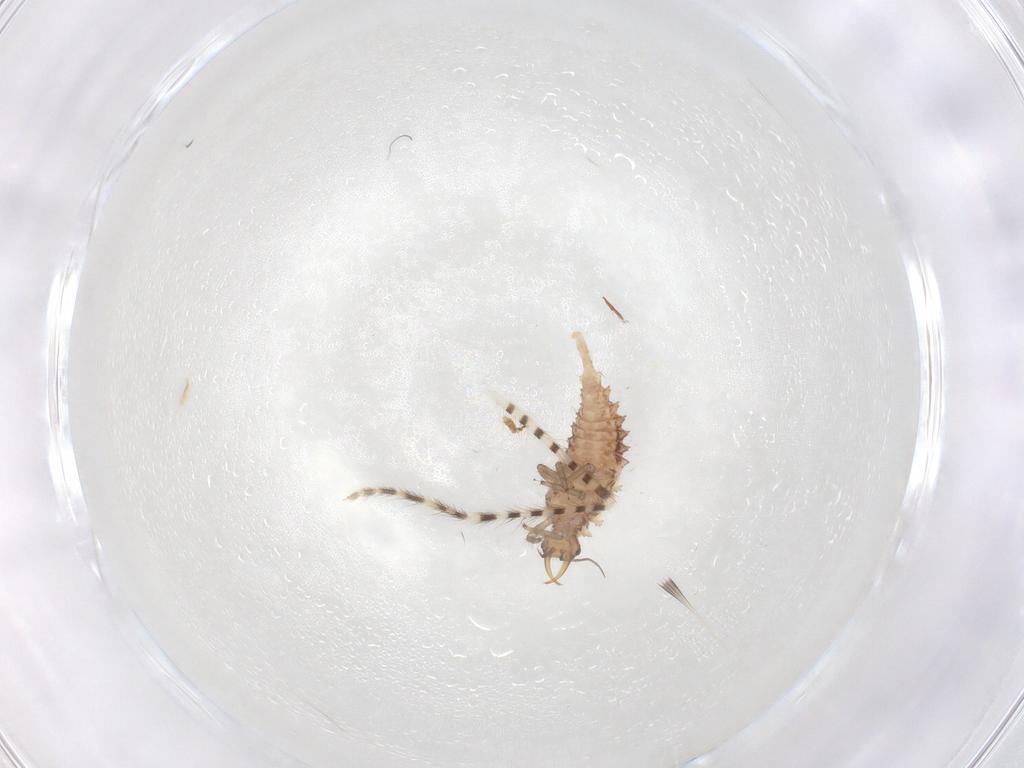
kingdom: Animalia
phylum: Arthropoda
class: Insecta
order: Neuroptera
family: Chrysopidae
